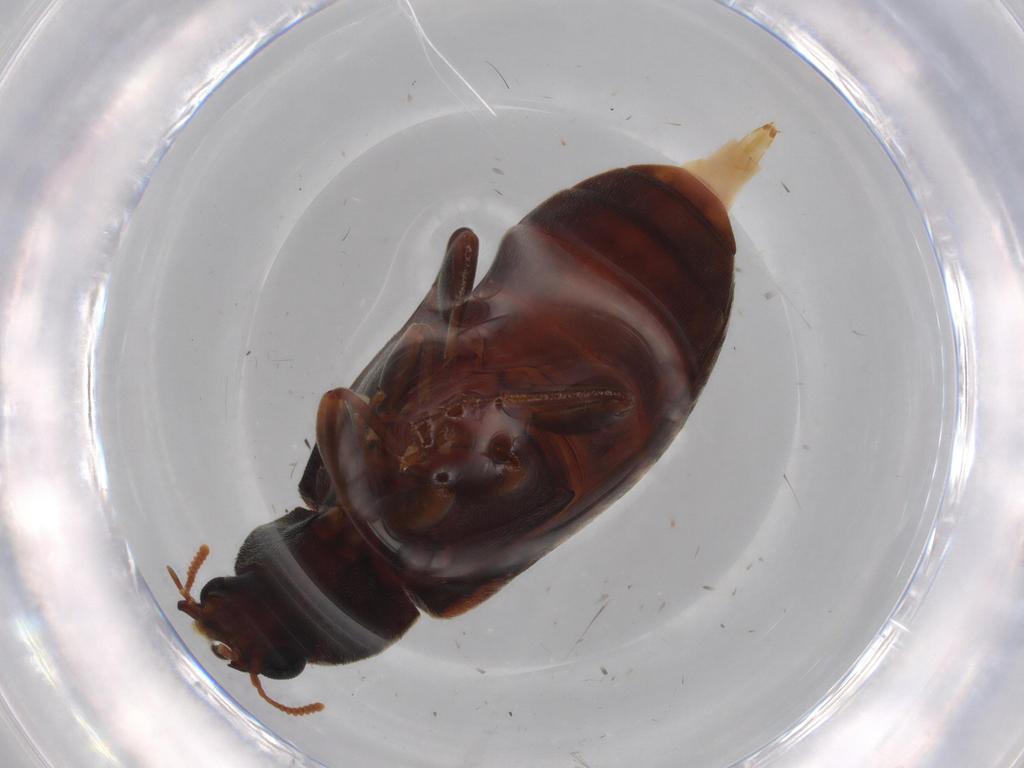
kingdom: Animalia
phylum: Arthropoda
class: Insecta
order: Coleoptera
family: Mycteridae
